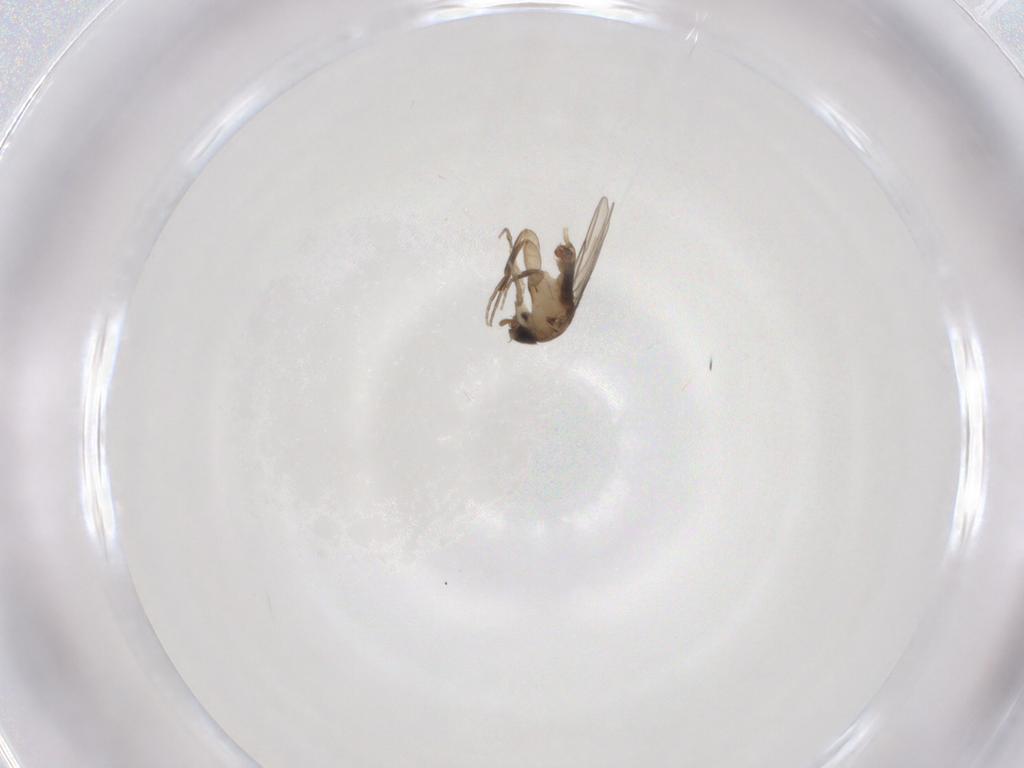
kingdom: Animalia
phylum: Arthropoda
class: Insecta
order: Diptera
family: Phoridae
